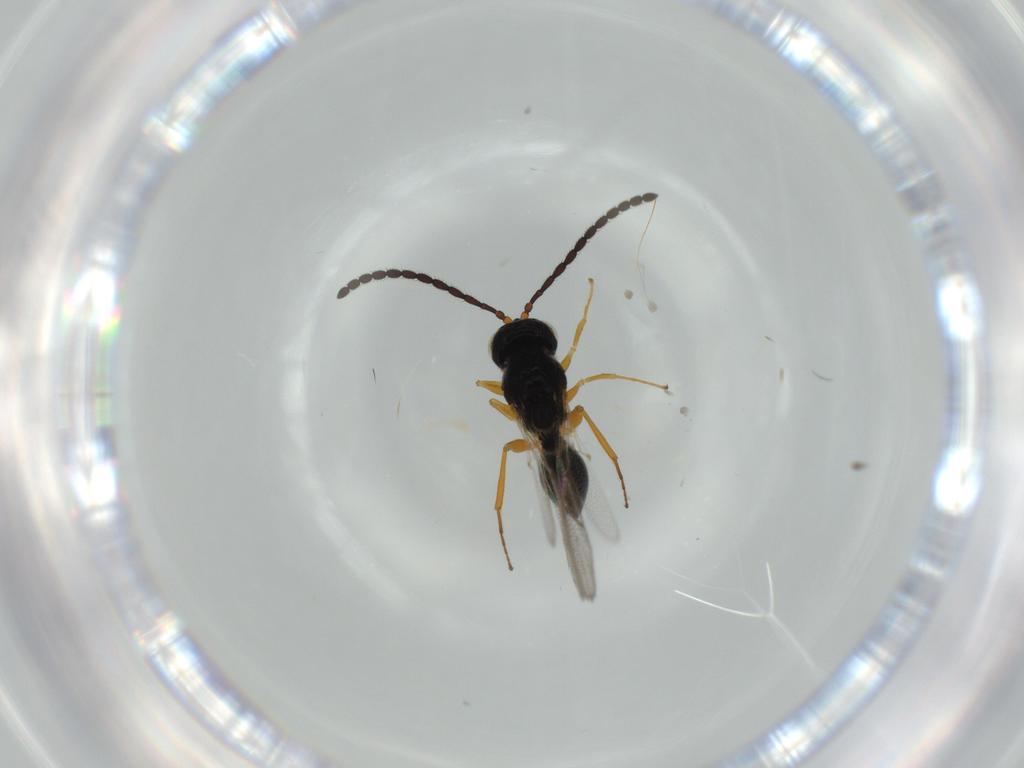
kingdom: Animalia
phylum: Arthropoda
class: Insecta
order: Hymenoptera
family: Figitidae
